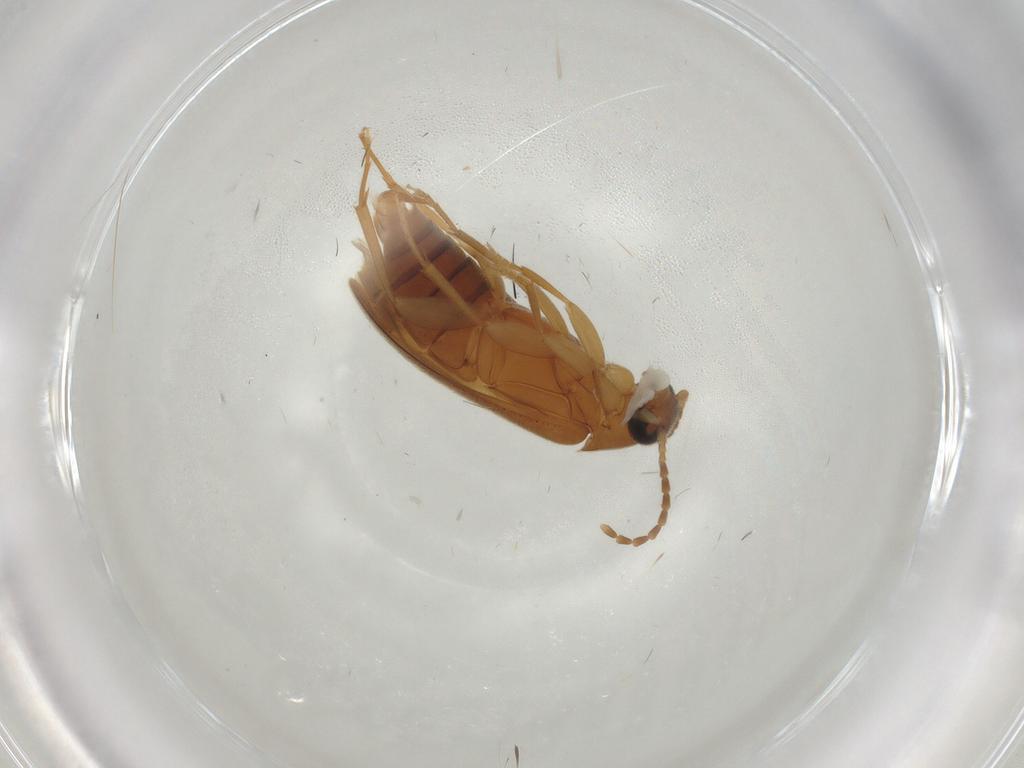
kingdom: Animalia
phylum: Arthropoda
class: Insecta
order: Coleoptera
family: Scraptiidae
